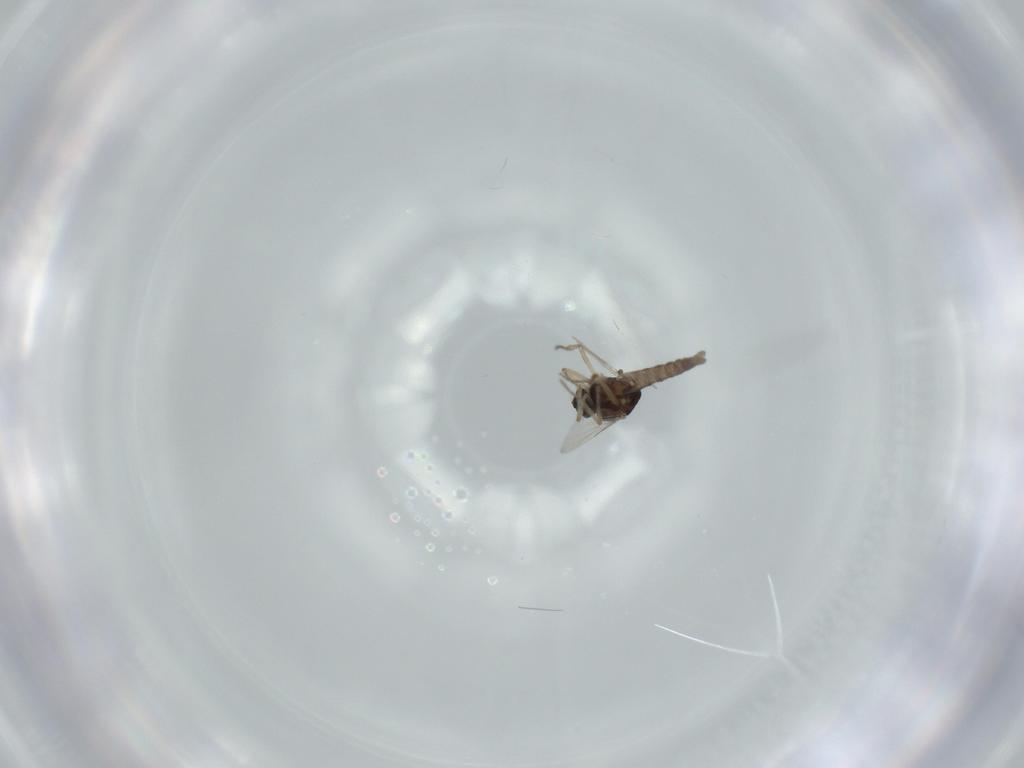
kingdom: Animalia
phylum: Arthropoda
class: Insecta
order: Diptera
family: Ceratopogonidae
